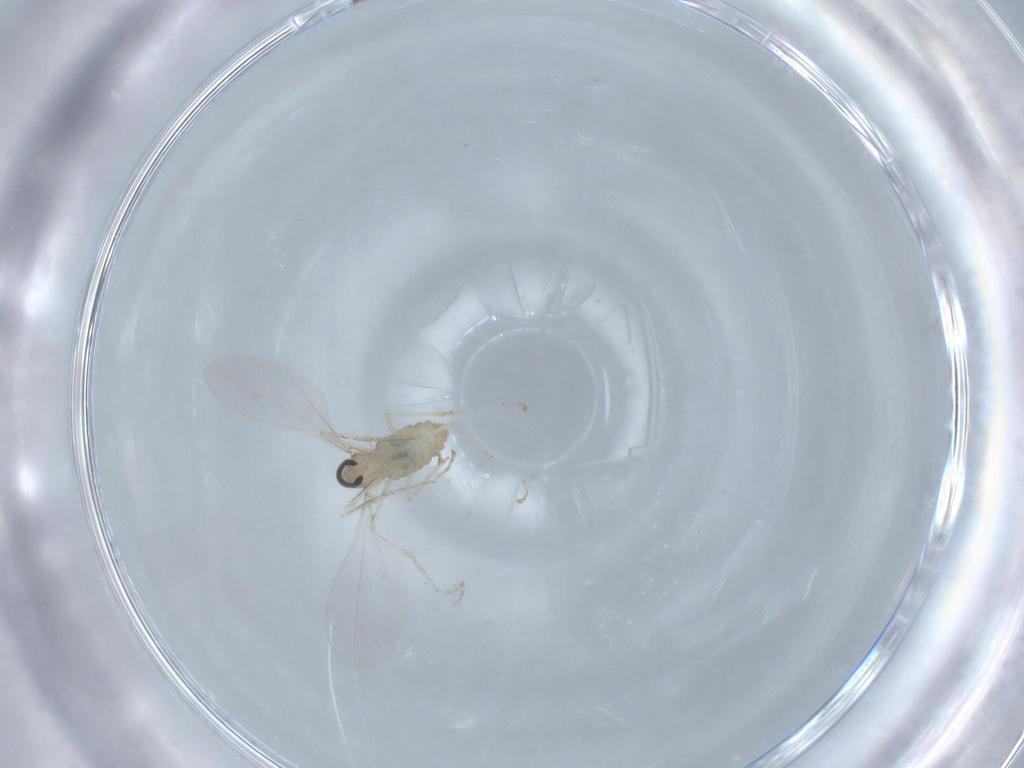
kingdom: Animalia
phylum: Arthropoda
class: Insecta
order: Diptera
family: Cecidomyiidae
